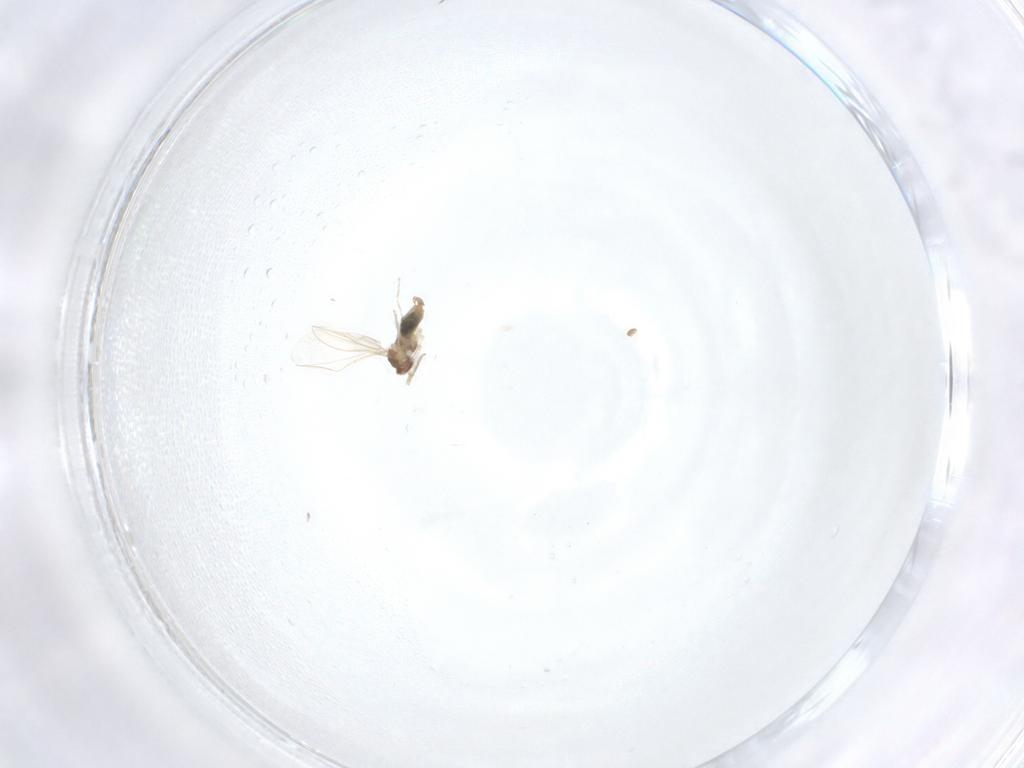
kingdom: Animalia
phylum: Arthropoda
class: Insecta
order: Diptera
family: Cecidomyiidae
